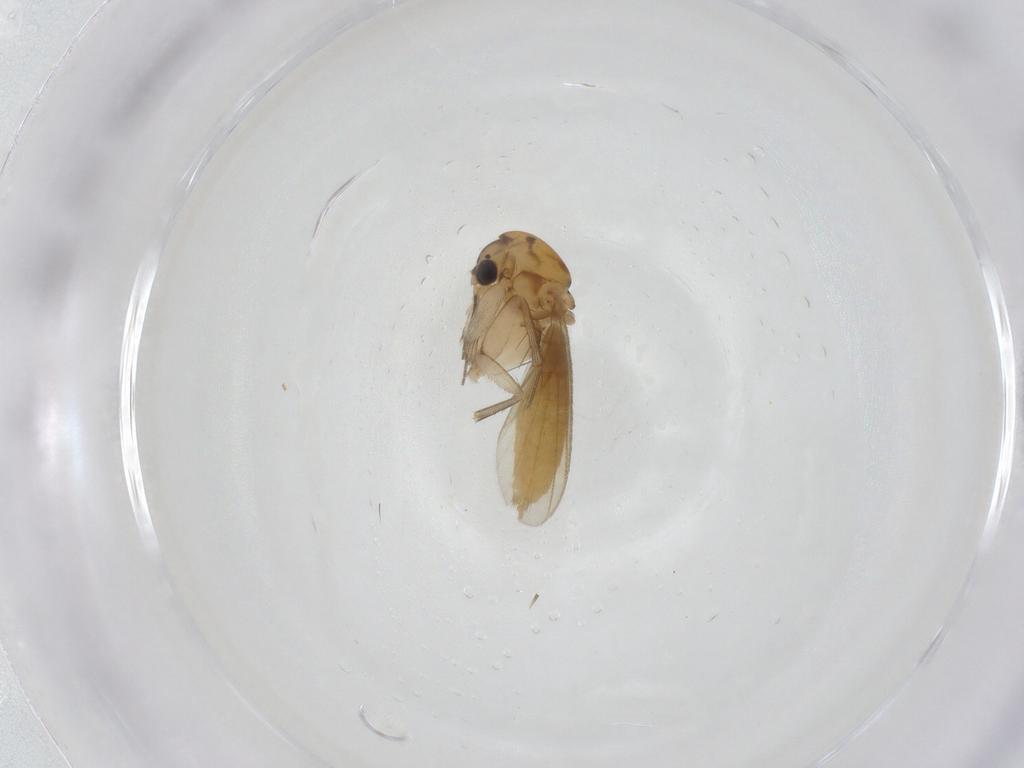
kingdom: Animalia
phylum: Arthropoda
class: Insecta
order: Diptera
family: Mycetophilidae
